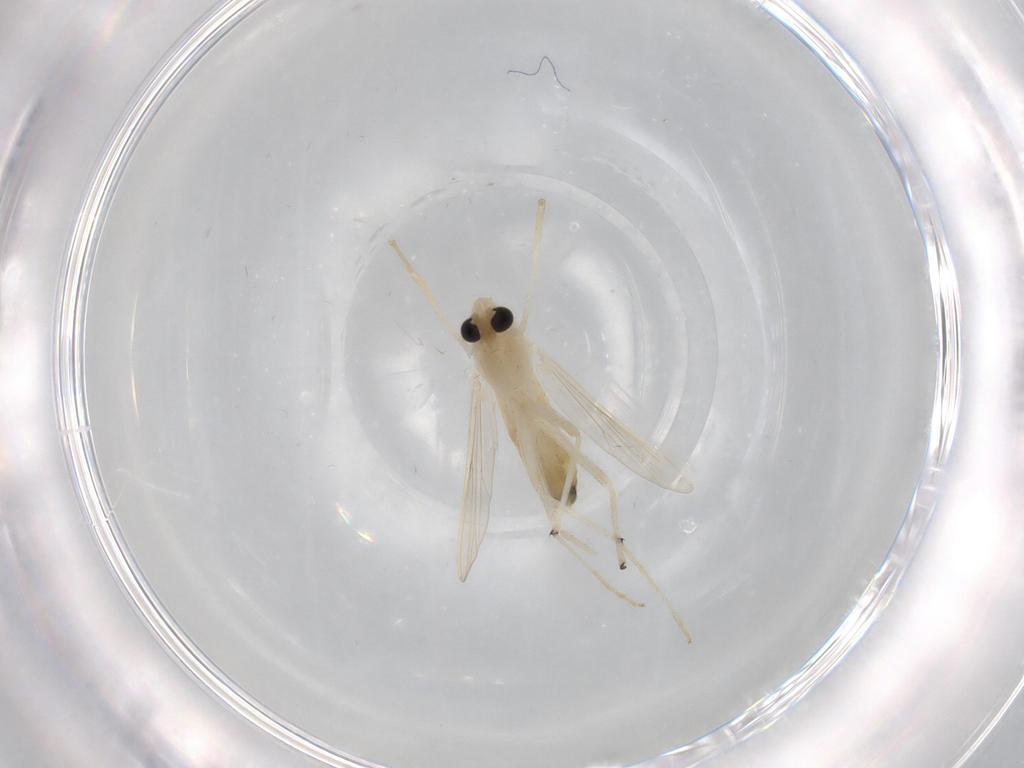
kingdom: Animalia
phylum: Arthropoda
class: Insecta
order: Diptera
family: Chironomidae
